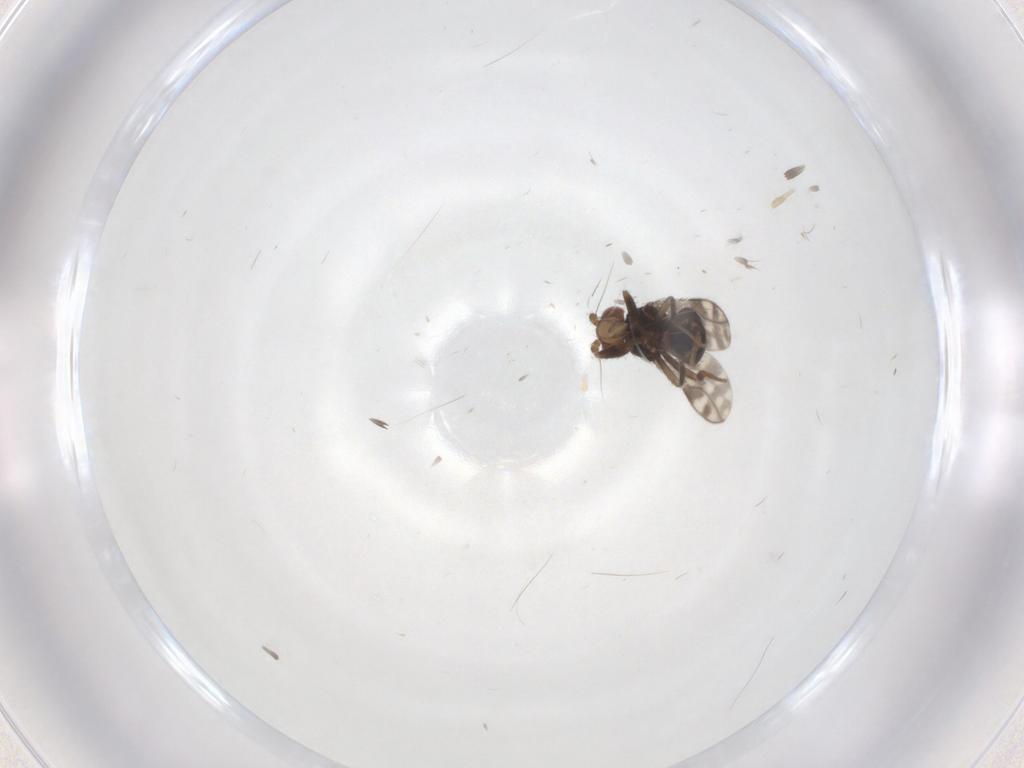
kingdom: Animalia
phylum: Arthropoda
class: Insecta
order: Diptera
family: Sphaeroceridae
